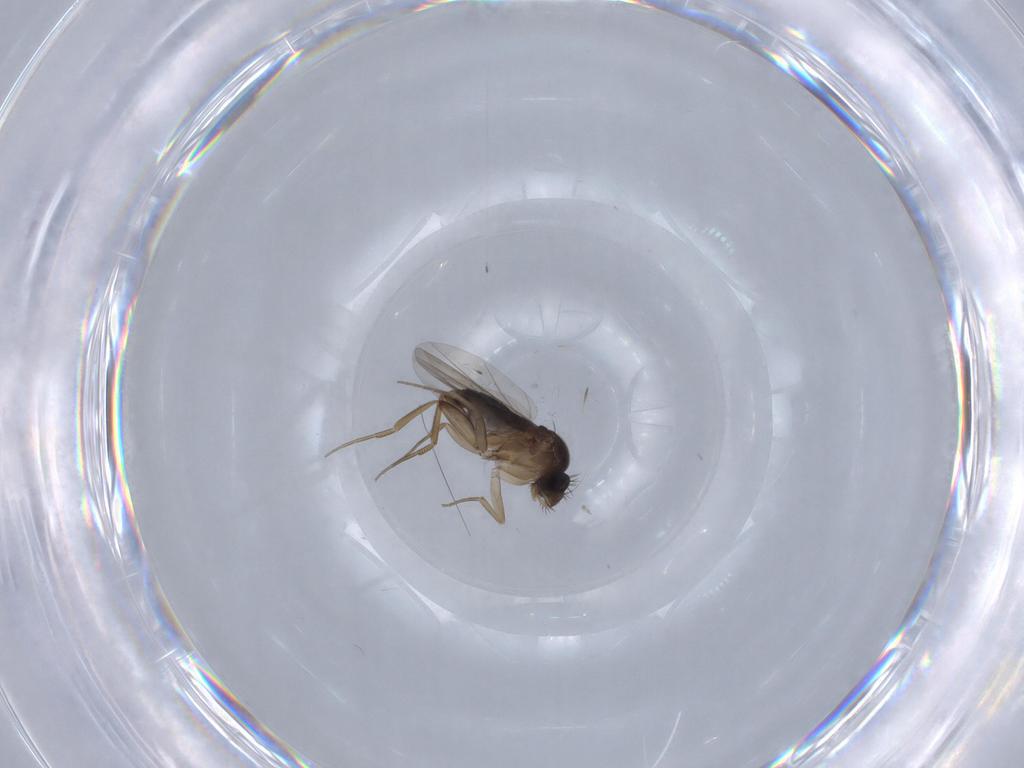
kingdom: Animalia
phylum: Arthropoda
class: Insecta
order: Diptera
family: Phoridae
